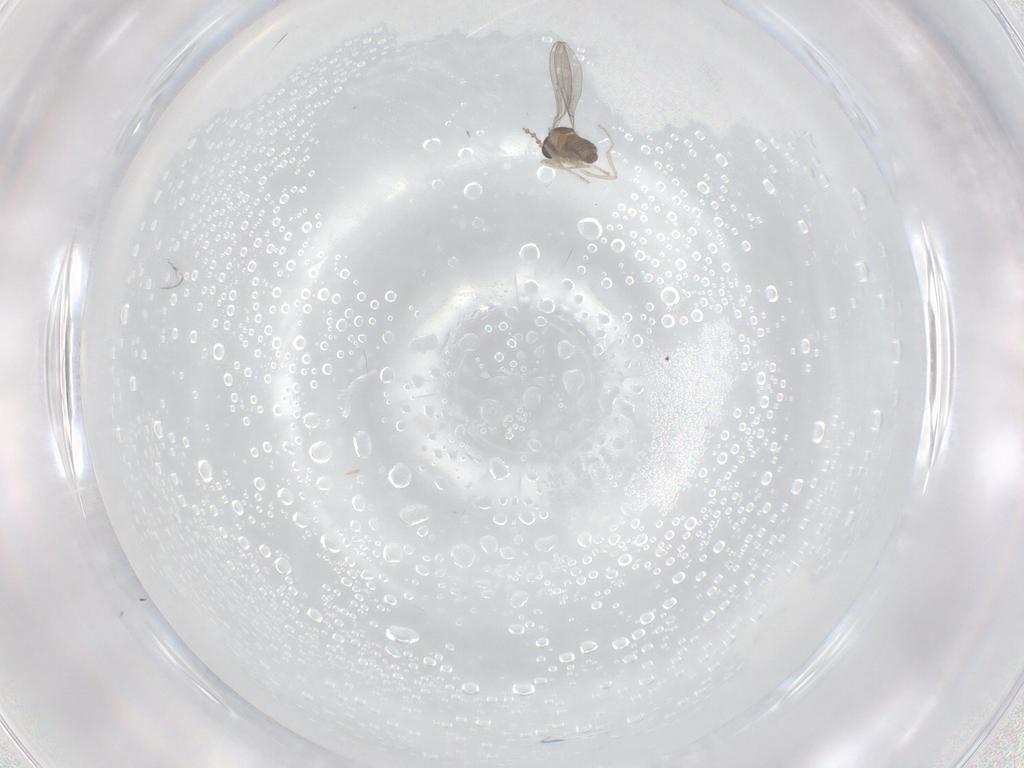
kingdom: Animalia
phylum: Arthropoda
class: Insecta
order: Diptera
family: Cecidomyiidae
